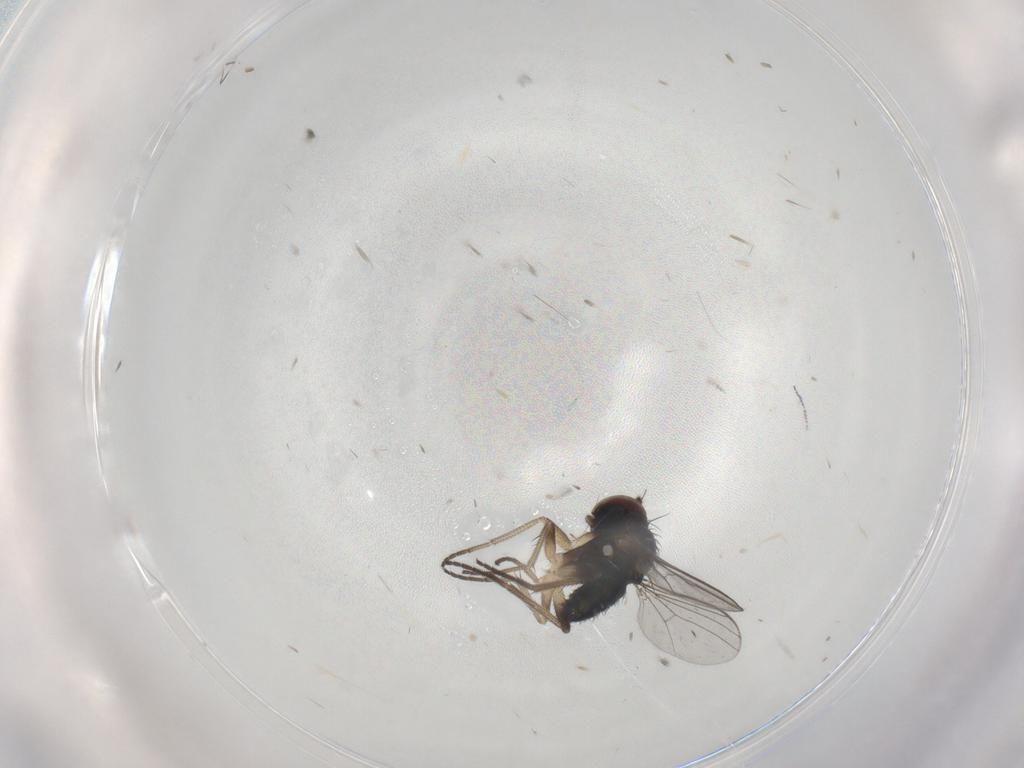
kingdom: Animalia
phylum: Arthropoda
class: Insecta
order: Diptera
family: Dolichopodidae
